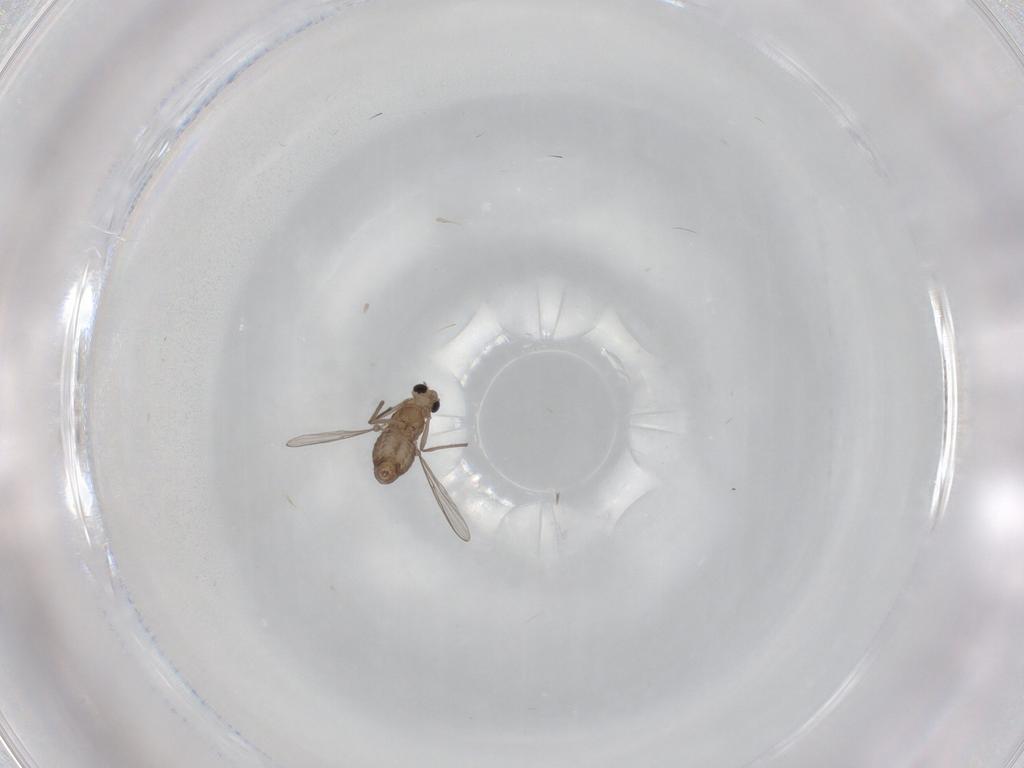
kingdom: Animalia
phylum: Arthropoda
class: Insecta
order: Diptera
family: Chironomidae
